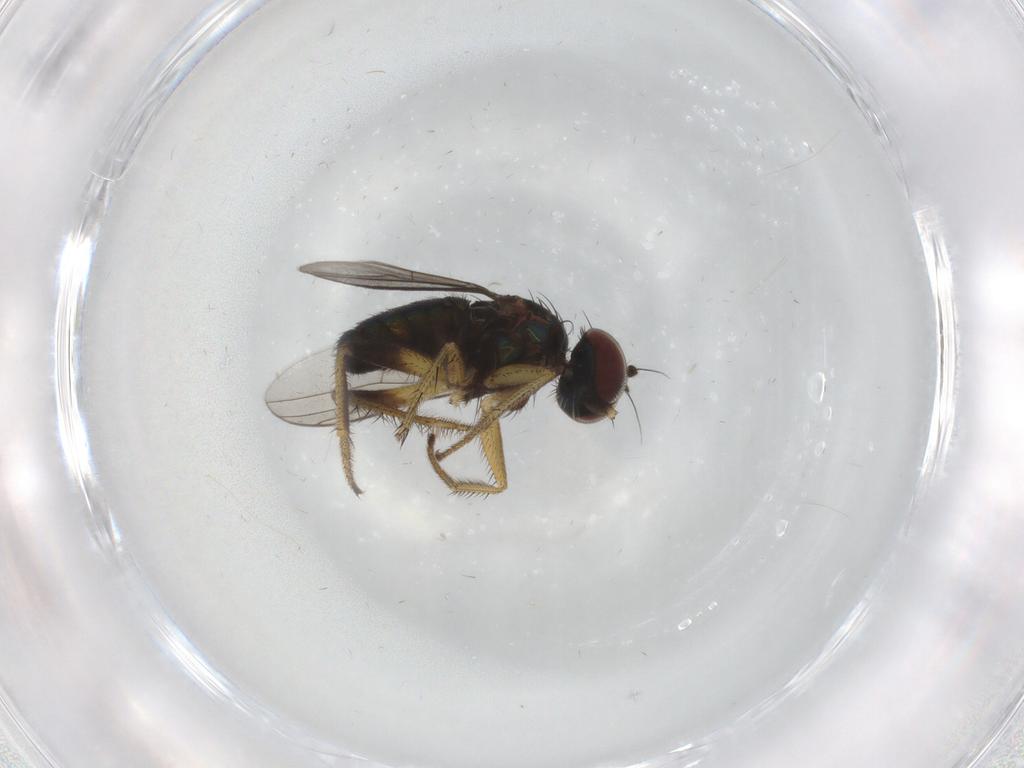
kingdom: Animalia
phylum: Arthropoda
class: Insecta
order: Diptera
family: Dolichopodidae
